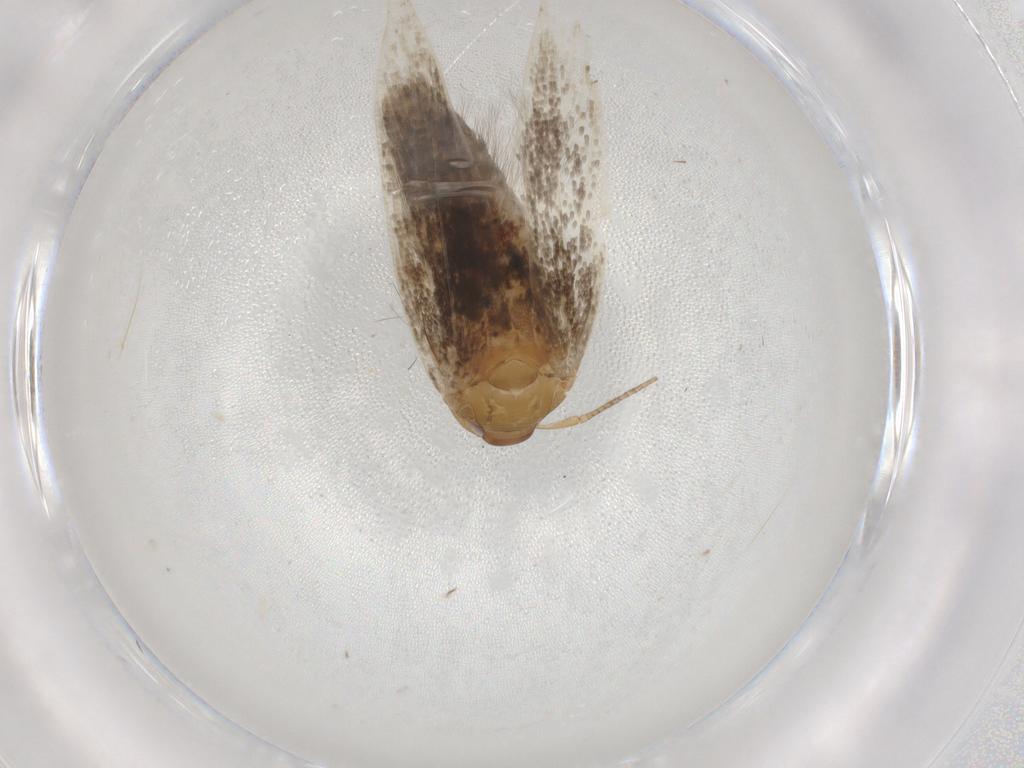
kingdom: Animalia
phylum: Arthropoda
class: Insecta
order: Lepidoptera
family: Cosmopterigidae
